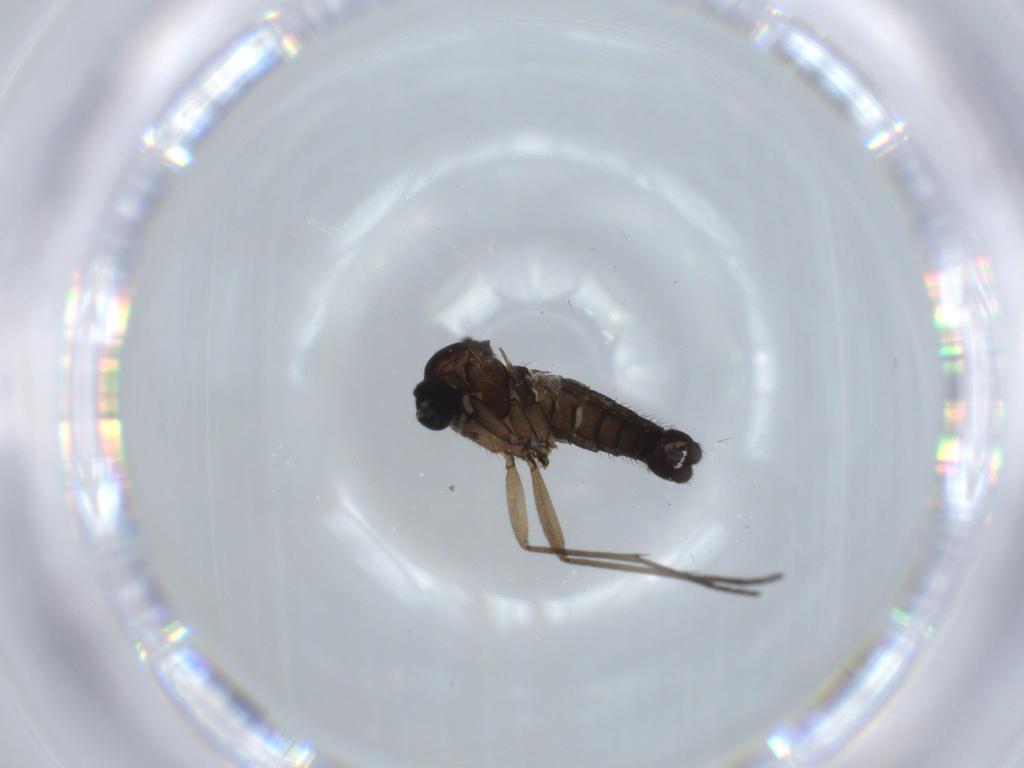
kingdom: Animalia
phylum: Arthropoda
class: Insecta
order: Diptera
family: Sciaridae
